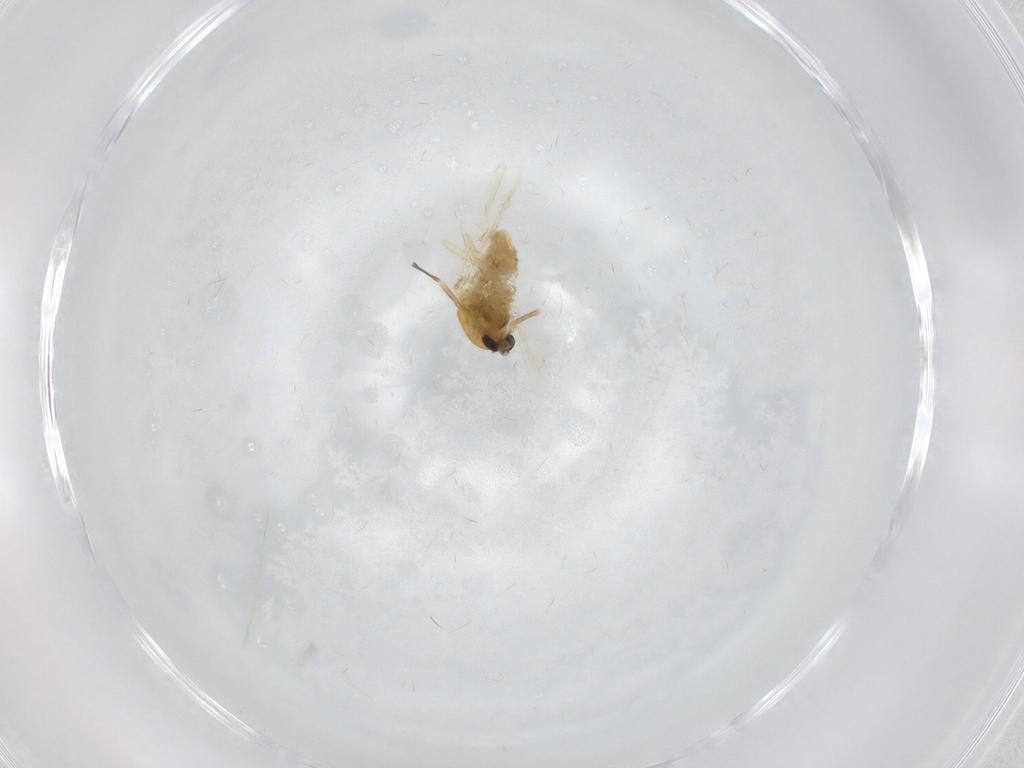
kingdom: Animalia
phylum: Arthropoda
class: Insecta
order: Diptera
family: Chironomidae
